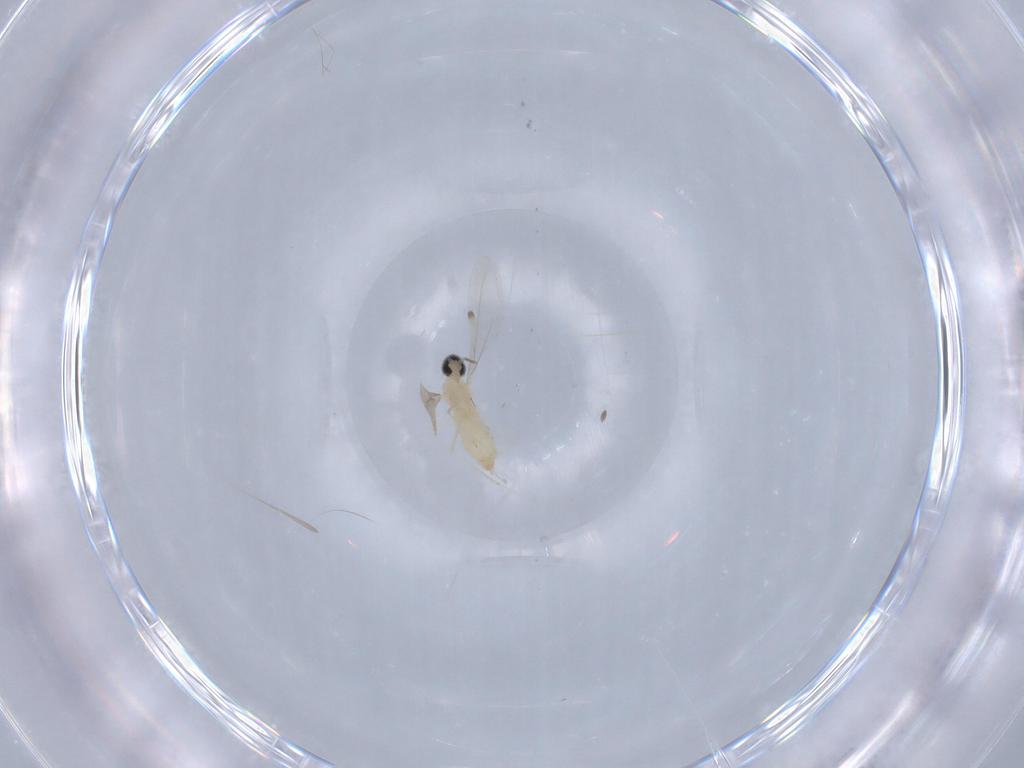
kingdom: Animalia
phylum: Arthropoda
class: Insecta
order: Diptera
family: Cecidomyiidae
